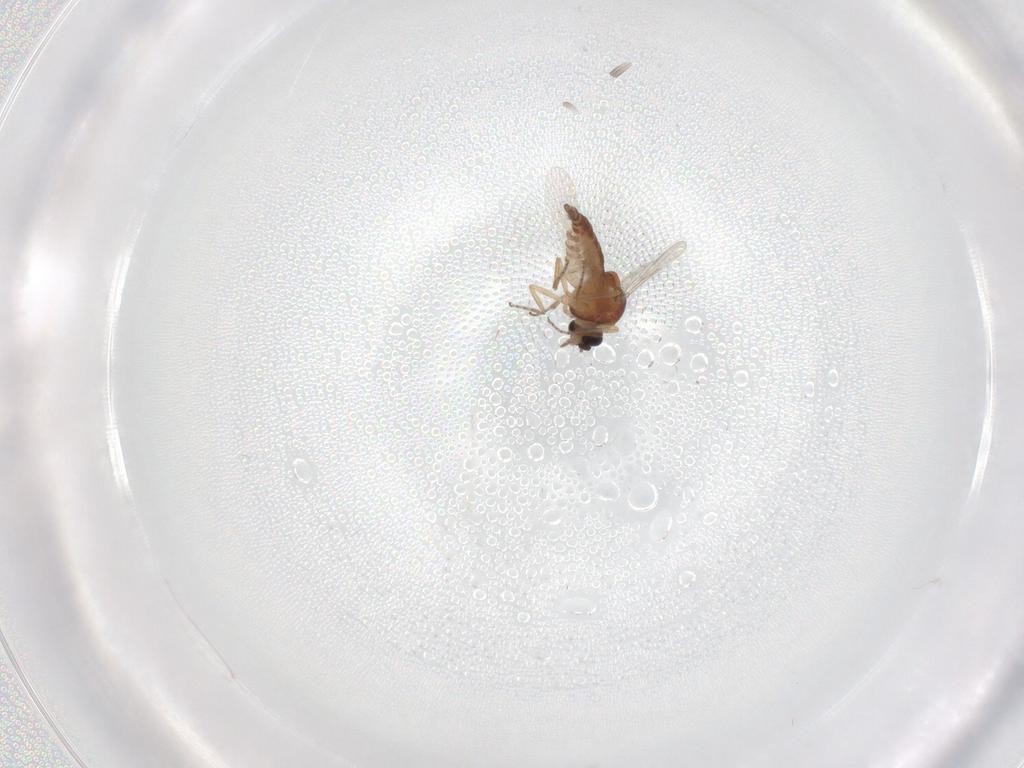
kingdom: Animalia
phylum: Arthropoda
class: Insecta
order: Diptera
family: Ceratopogonidae
